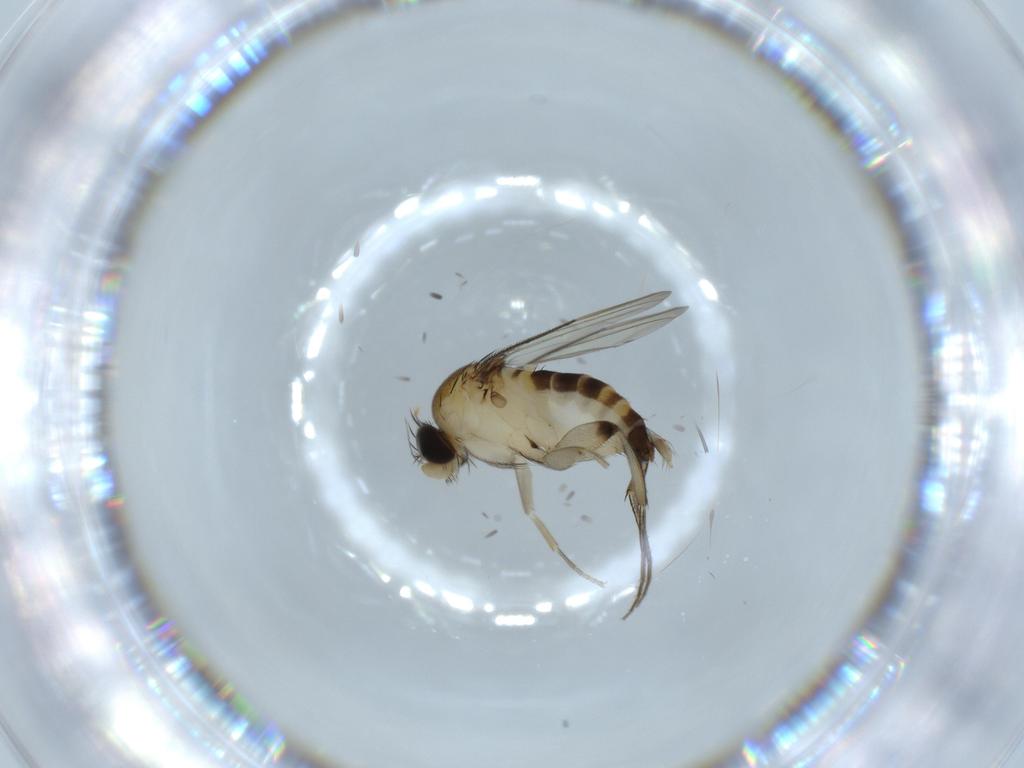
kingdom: Animalia
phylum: Arthropoda
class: Insecta
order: Diptera
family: Phoridae
